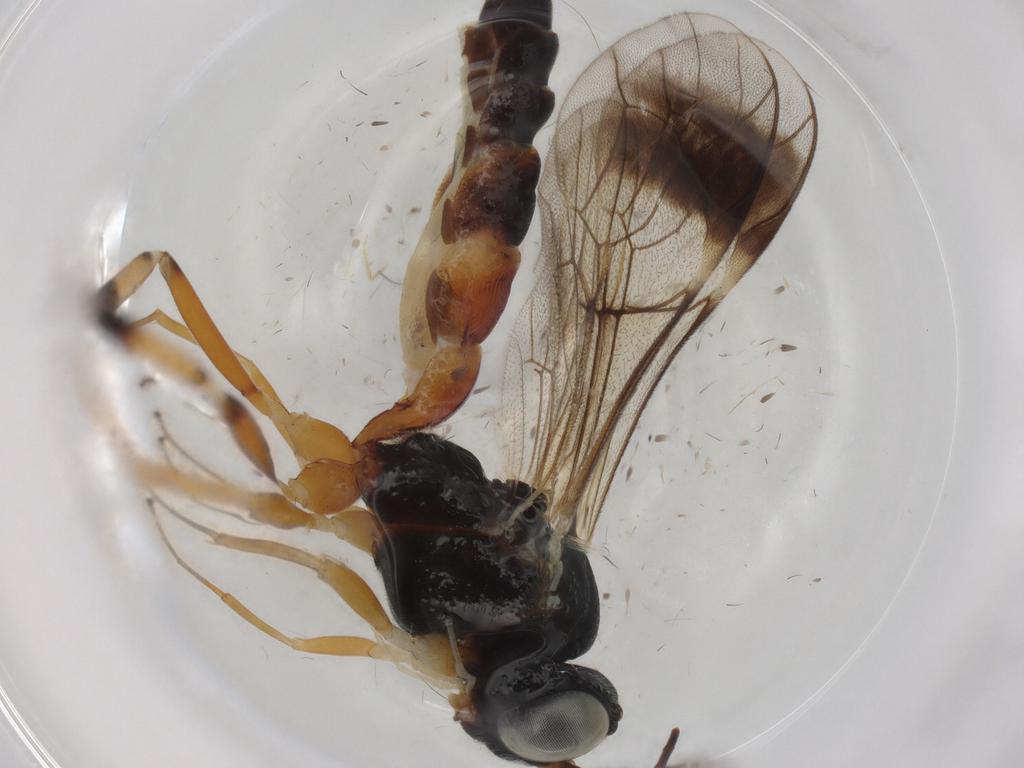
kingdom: Animalia
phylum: Arthropoda
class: Insecta
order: Hymenoptera
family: Ichneumonidae
